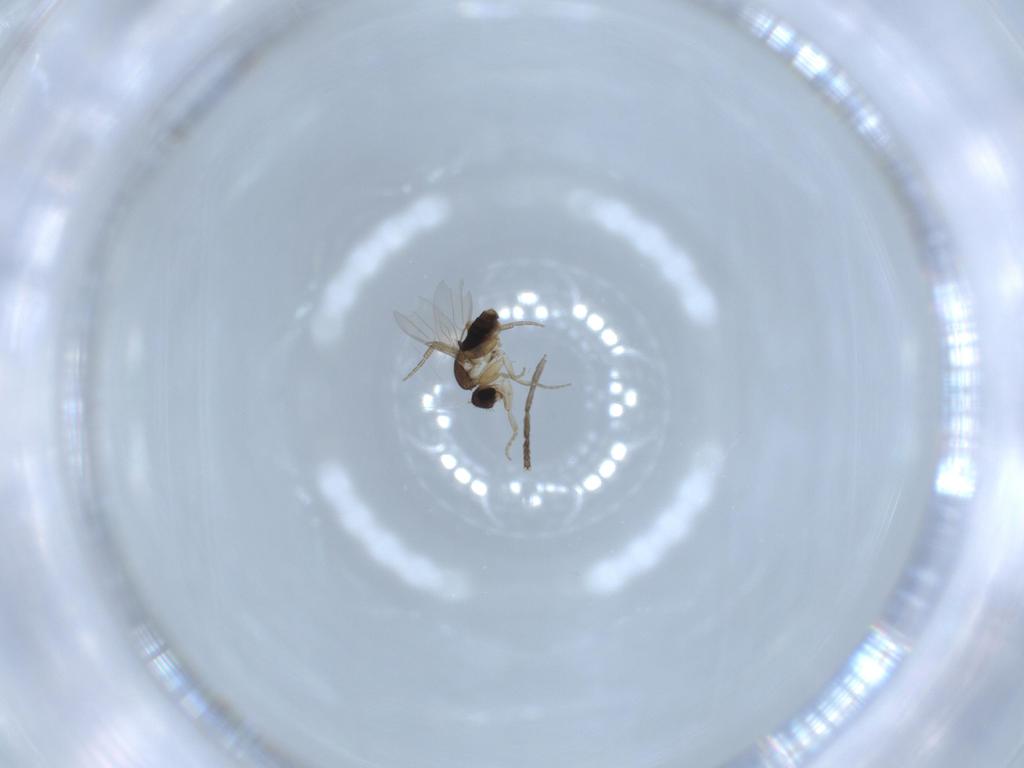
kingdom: Animalia
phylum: Arthropoda
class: Insecta
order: Diptera
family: Phoridae
